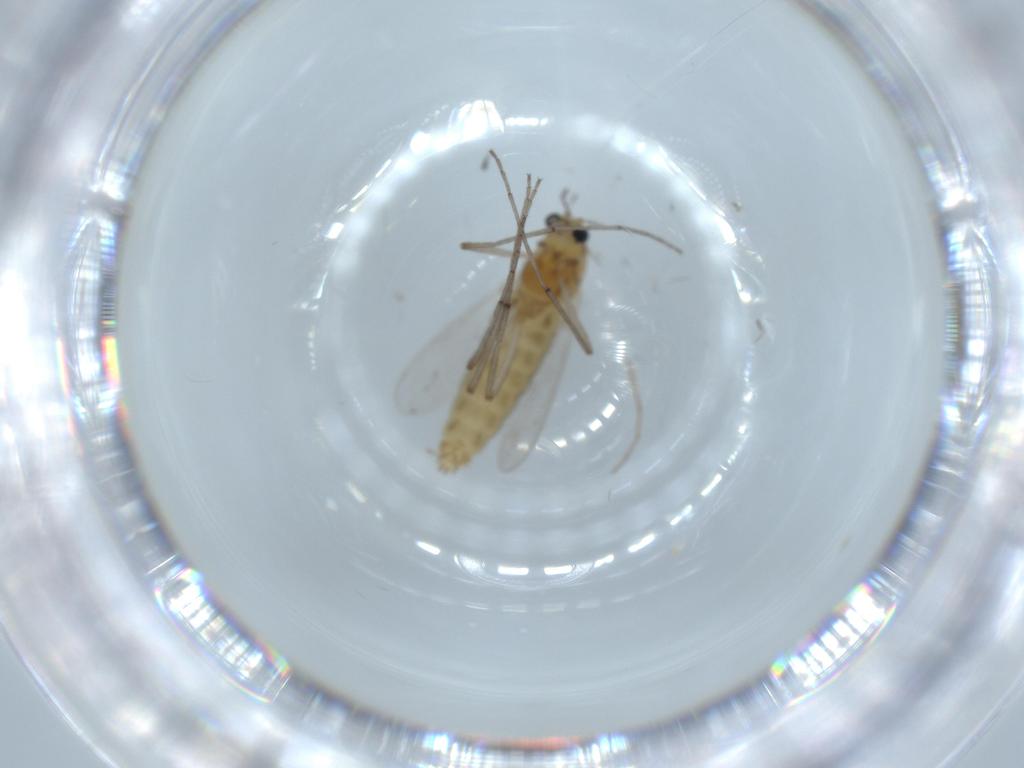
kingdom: Animalia
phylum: Arthropoda
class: Insecta
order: Diptera
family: Chironomidae
